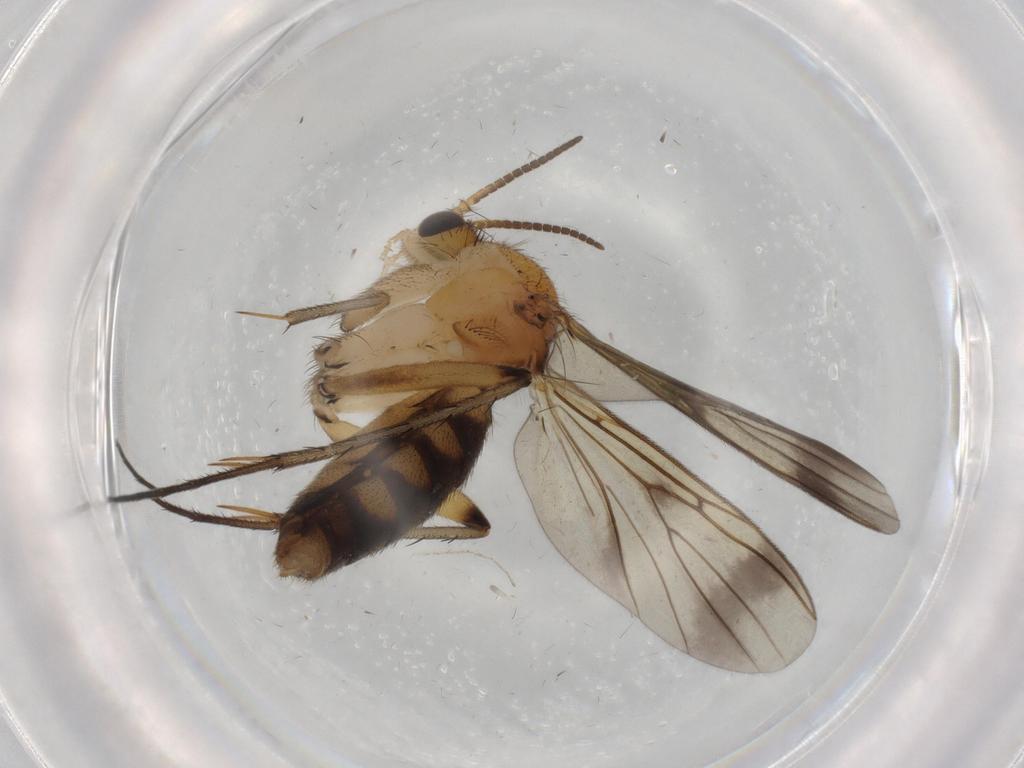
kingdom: Animalia
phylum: Arthropoda
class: Insecta
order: Diptera
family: Mycetophilidae
